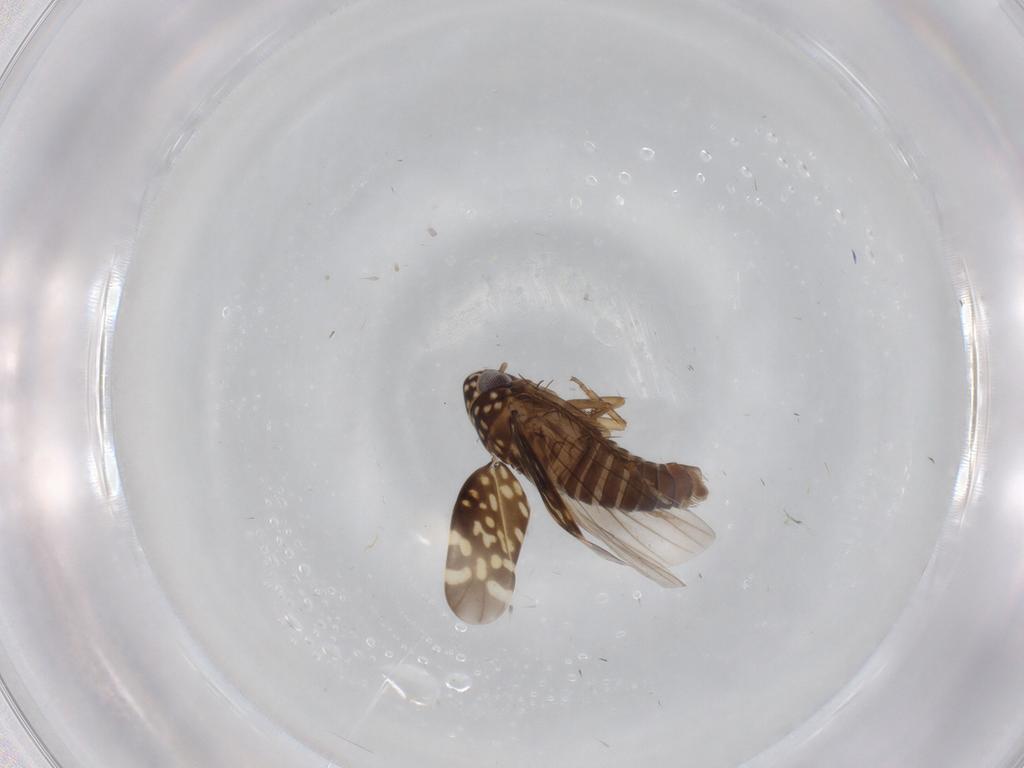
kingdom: Animalia
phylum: Arthropoda
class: Insecta
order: Hemiptera
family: Cicadellidae
